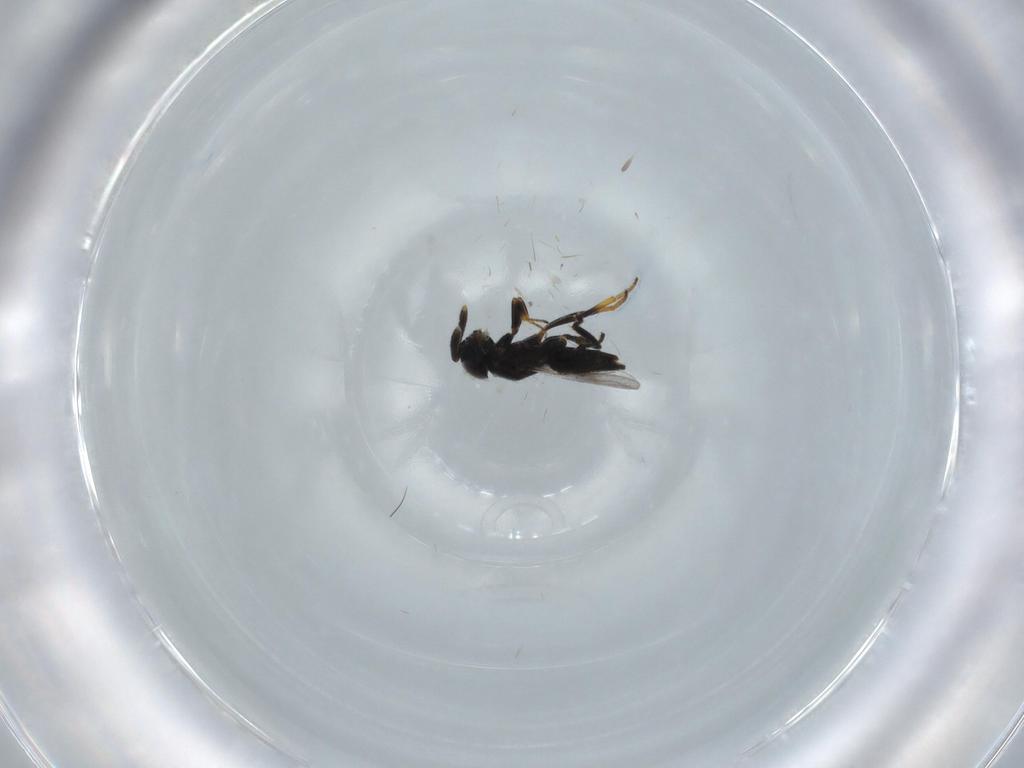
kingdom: Animalia
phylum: Arthropoda
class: Insecta
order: Hymenoptera
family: Encyrtidae
